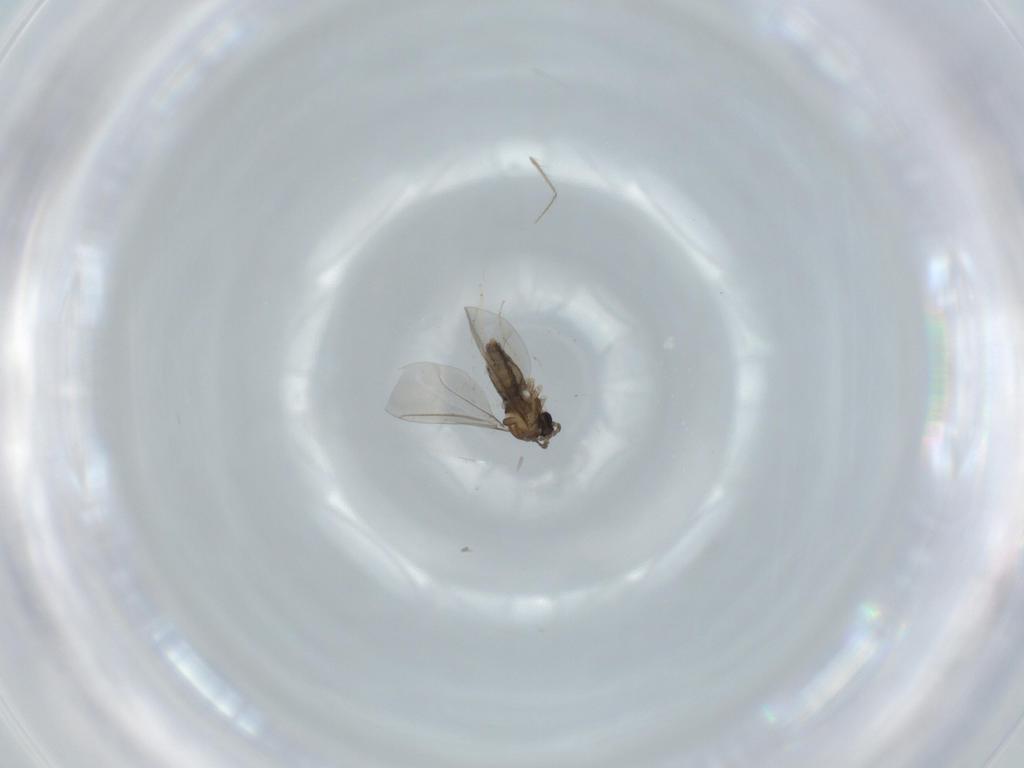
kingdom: Animalia
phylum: Arthropoda
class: Insecta
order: Diptera
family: Cecidomyiidae
